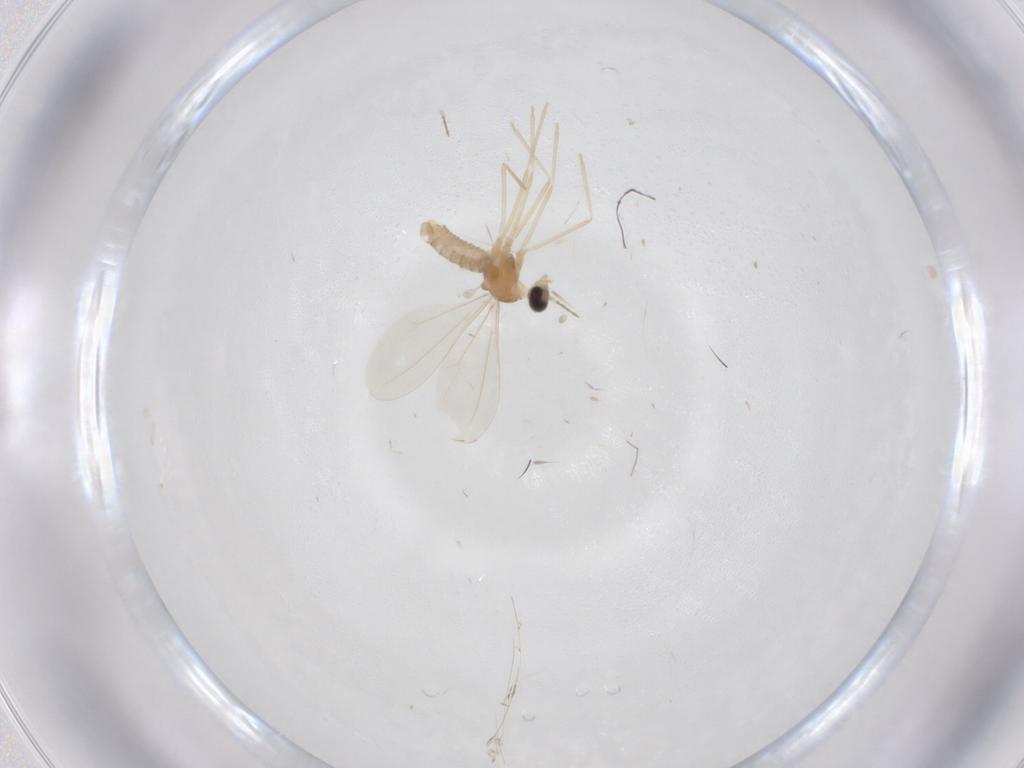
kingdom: Animalia
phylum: Arthropoda
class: Insecta
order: Diptera
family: Cecidomyiidae
